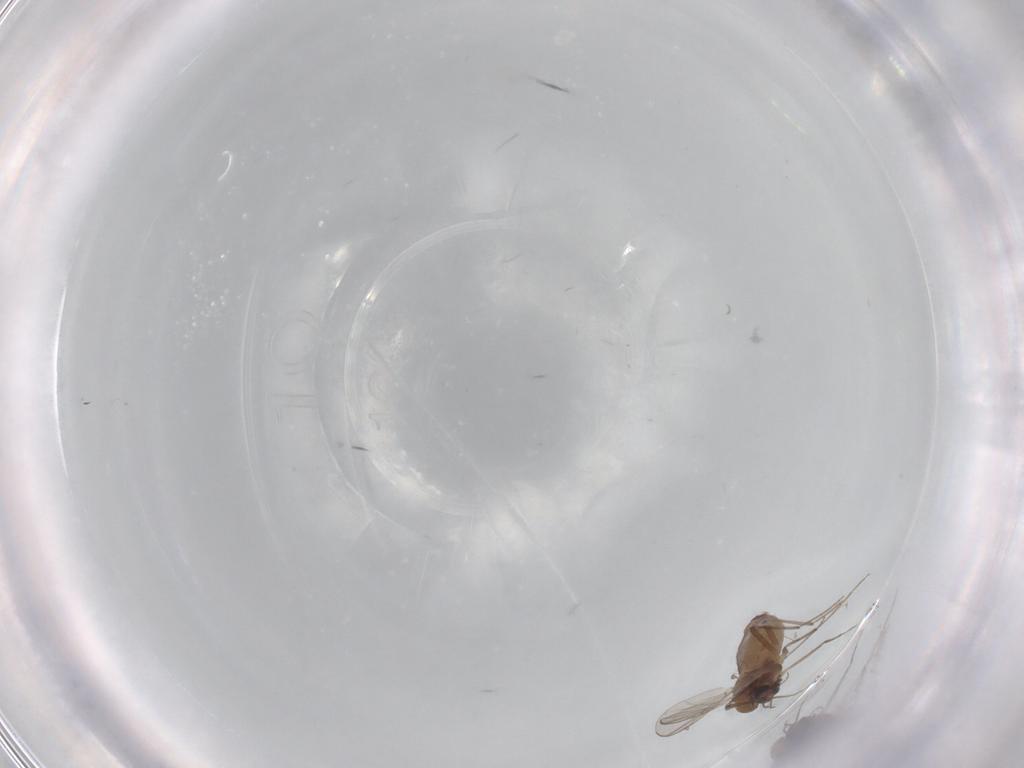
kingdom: Animalia
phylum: Arthropoda
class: Insecta
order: Diptera
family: Chironomidae
